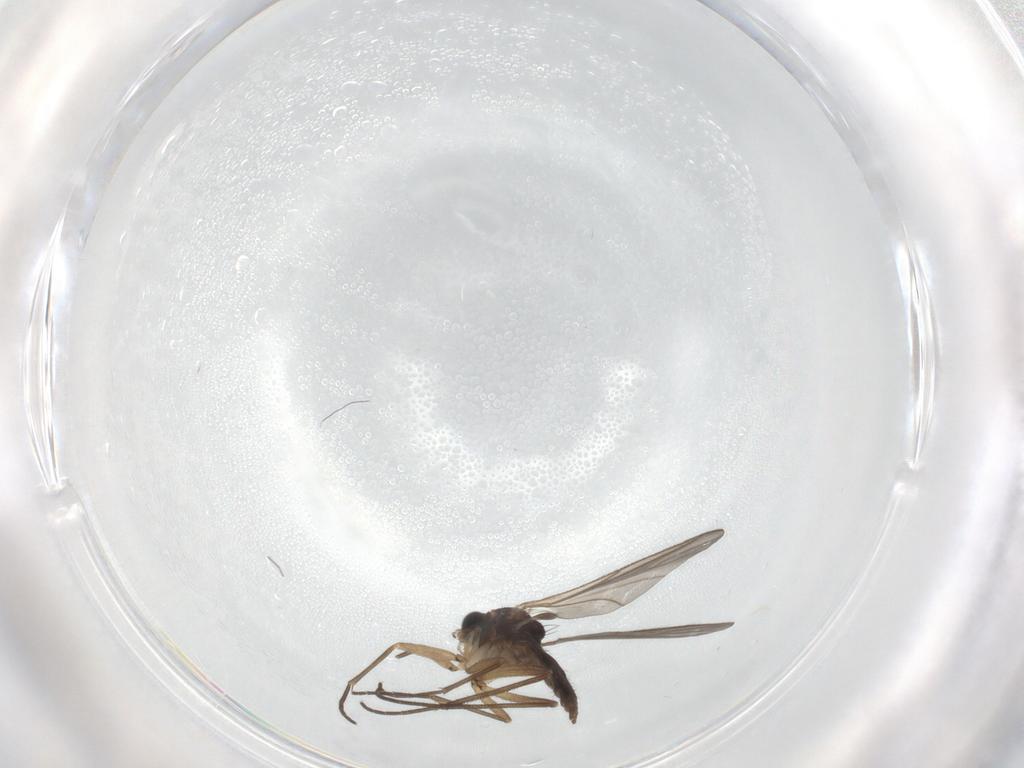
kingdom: Animalia
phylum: Arthropoda
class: Insecta
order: Diptera
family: Sciaridae
